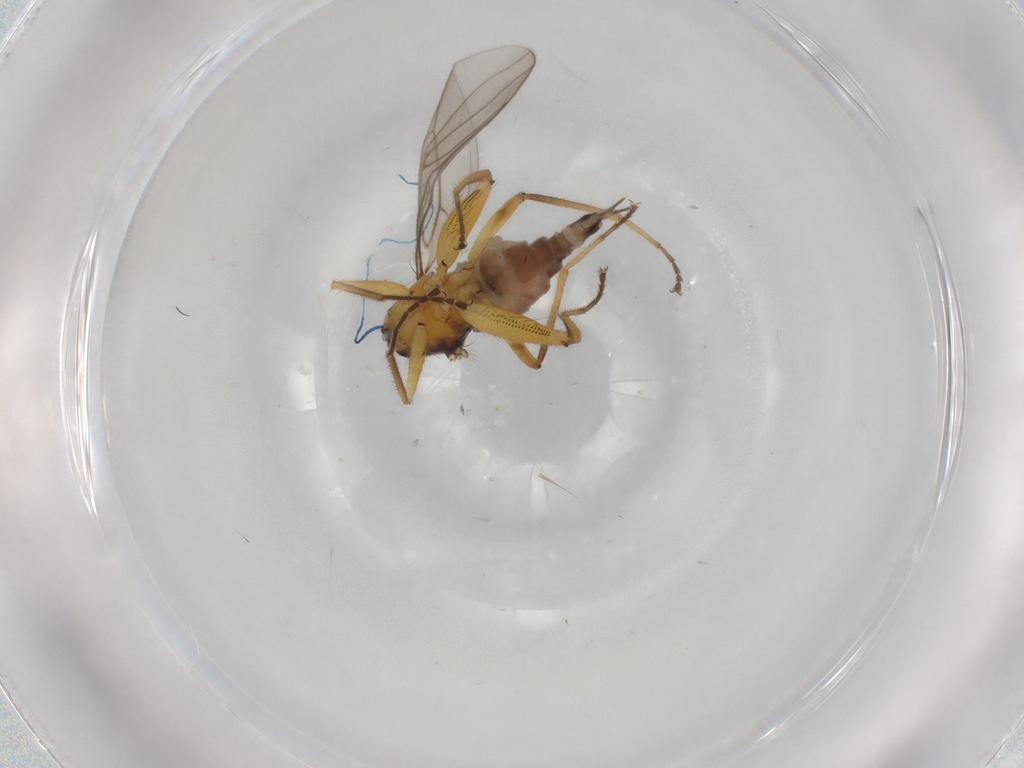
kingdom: Animalia
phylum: Arthropoda
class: Insecta
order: Diptera
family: Hybotidae
